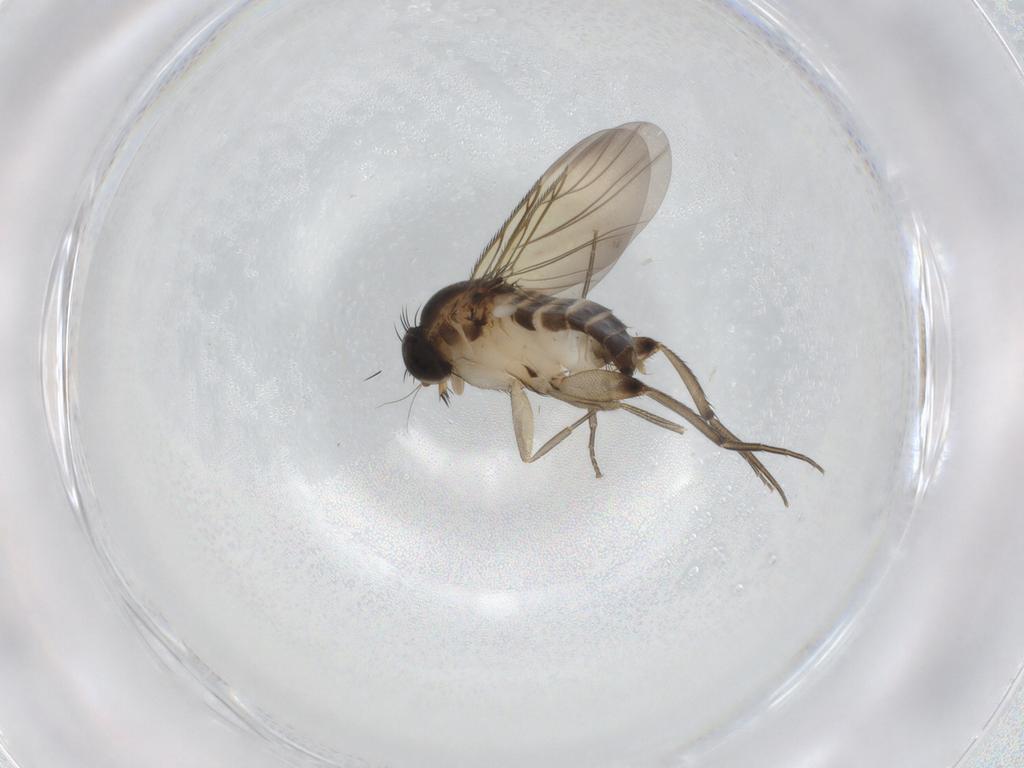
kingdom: Animalia
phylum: Arthropoda
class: Insecta
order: Diptera
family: Phoridae
